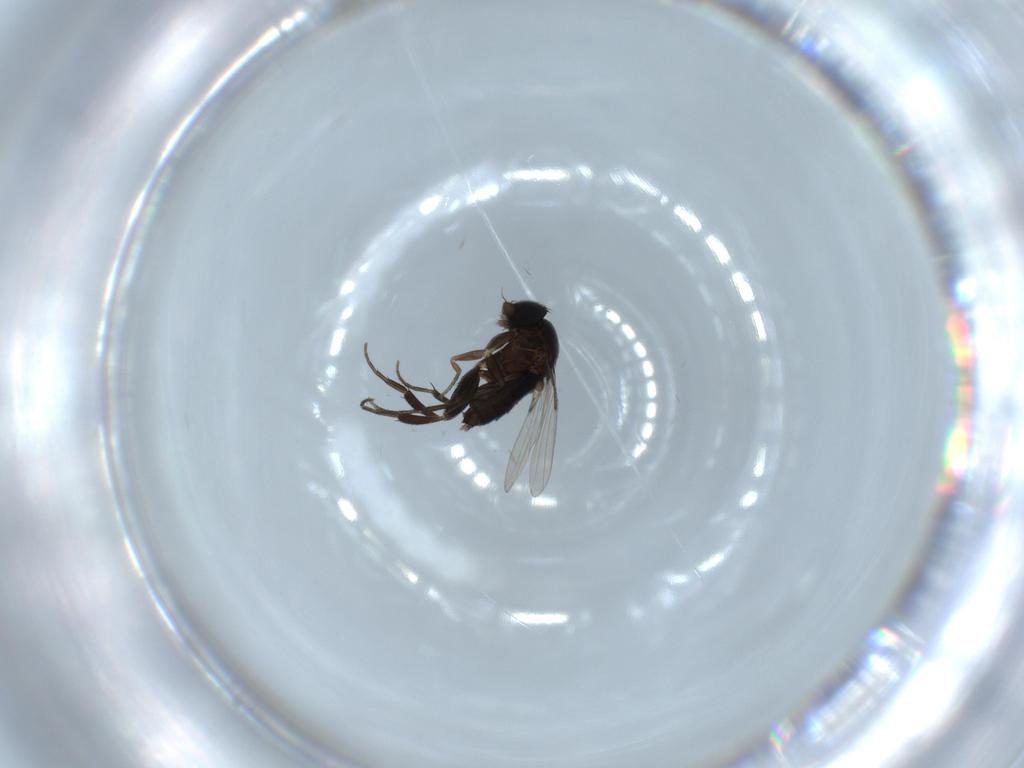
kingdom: Animalia
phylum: Arthropoda
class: Insecta
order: Diptera
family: Phoridae
